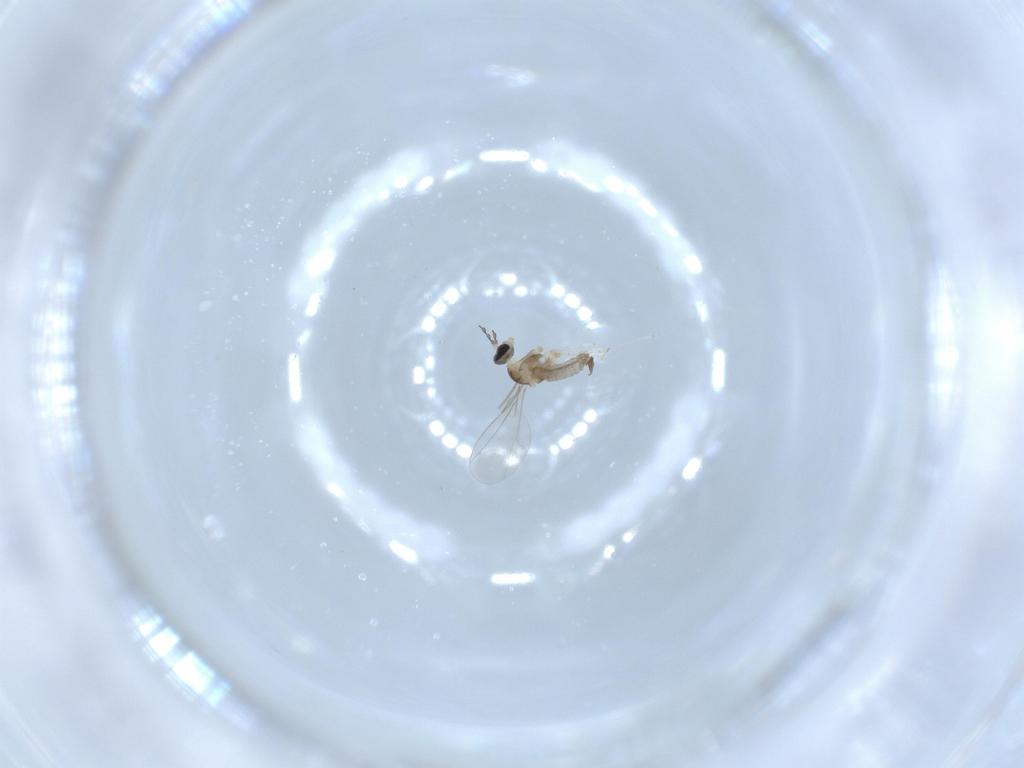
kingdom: Animalia
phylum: Arthropoda
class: Insecta
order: Diptera
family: Cecidomyiidae
